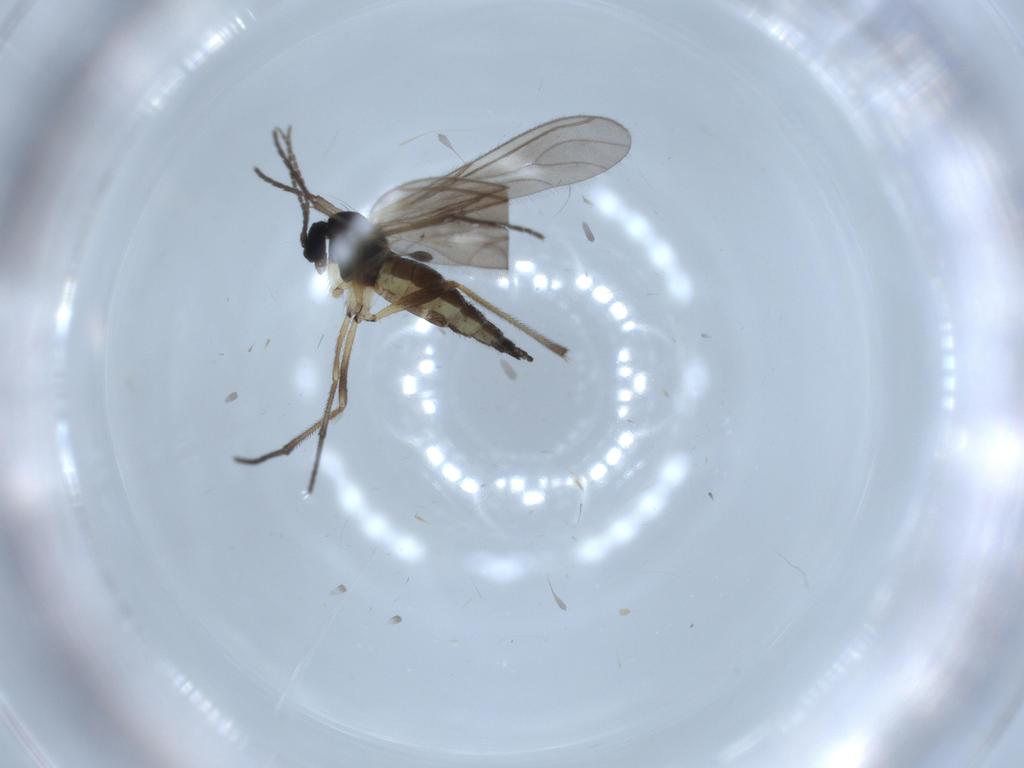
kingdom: Animalia
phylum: Arthropoda
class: Insecta
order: Diptera
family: Sciaridae
